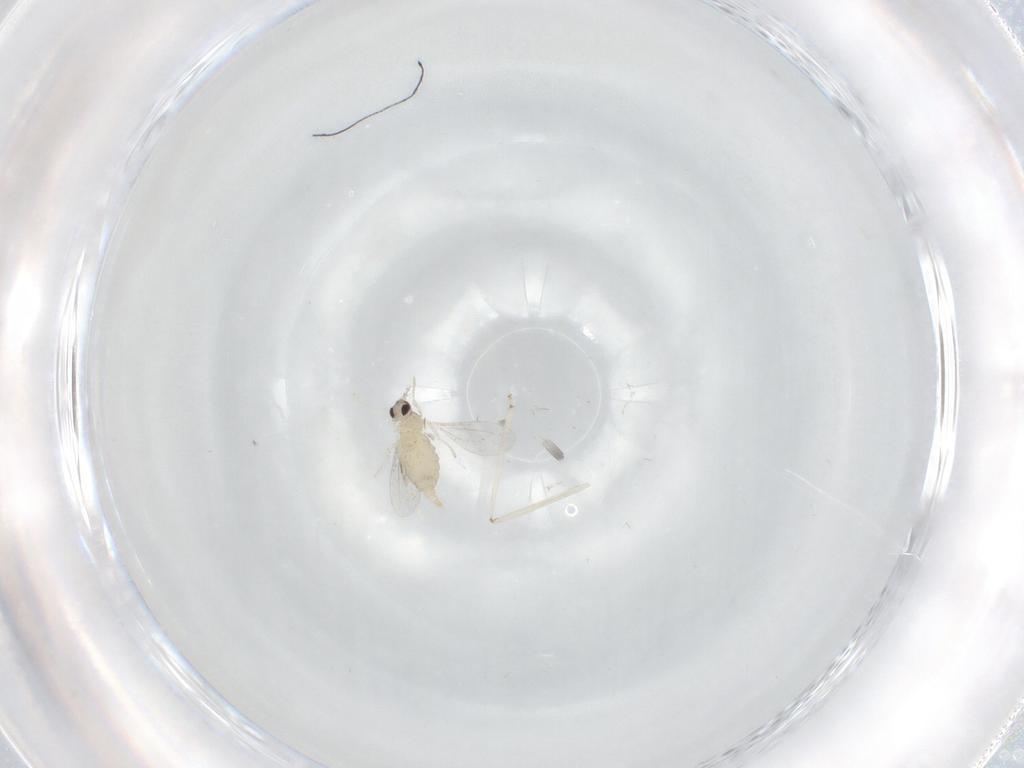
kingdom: Animalia
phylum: Arthropoda
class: Insecta
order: Diptera
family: Cecidomyiidae
